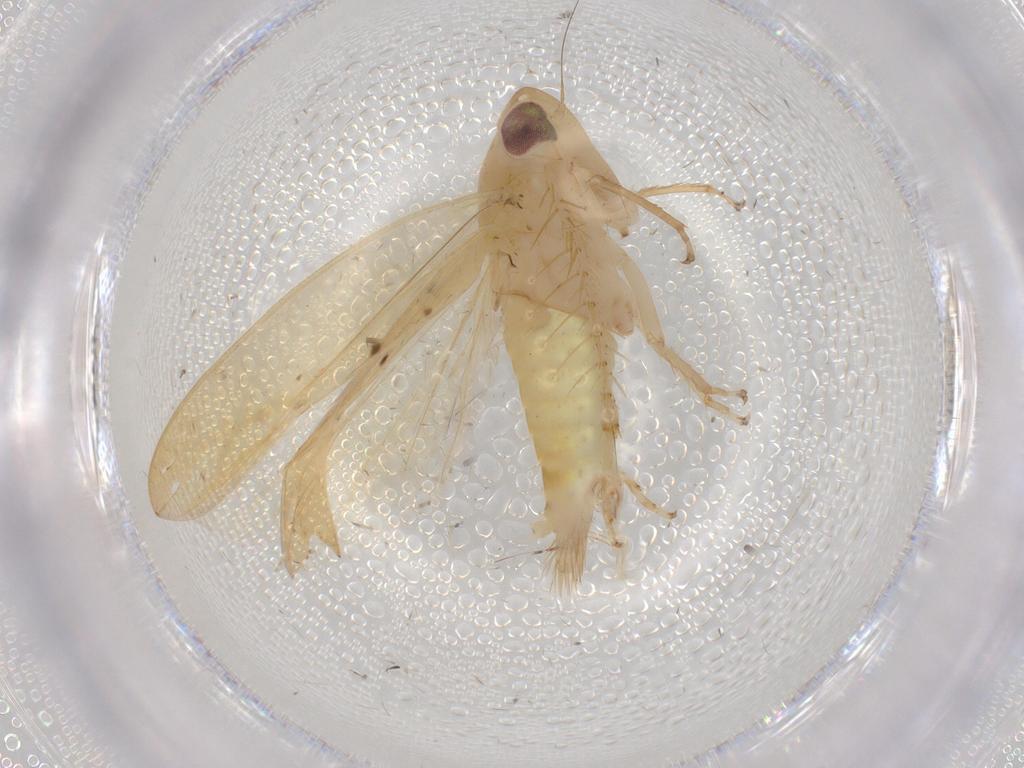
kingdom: Animalia
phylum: Arthropoda
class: Insecta
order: Hemiptera
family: Cicadellidae
